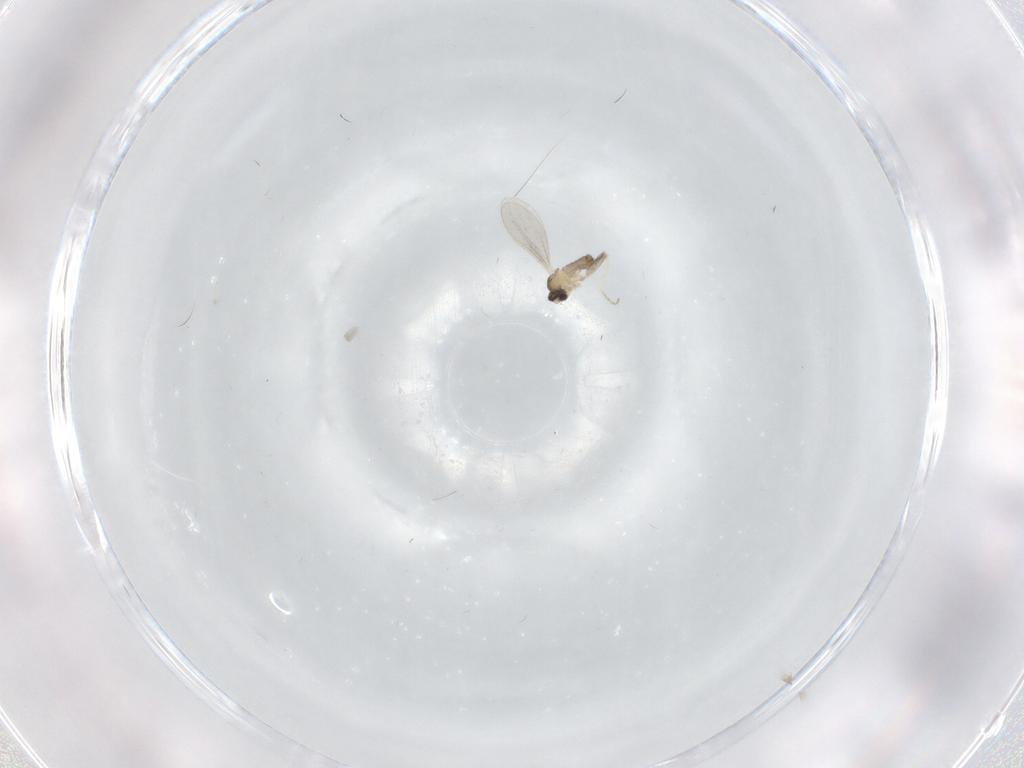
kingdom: Animalia
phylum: Arthropoda
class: Insecta
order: Diptera
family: Limoniidae
